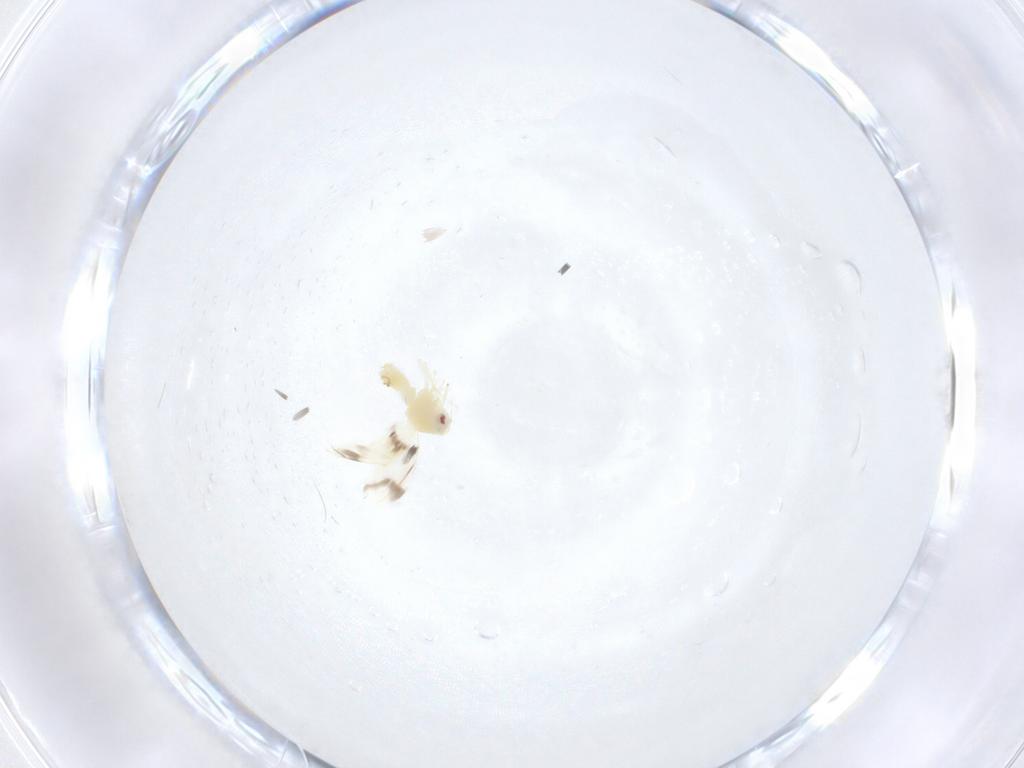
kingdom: Animalia
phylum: Arthropoda
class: Insecta
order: Hemiptera
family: Aleyrodidae
